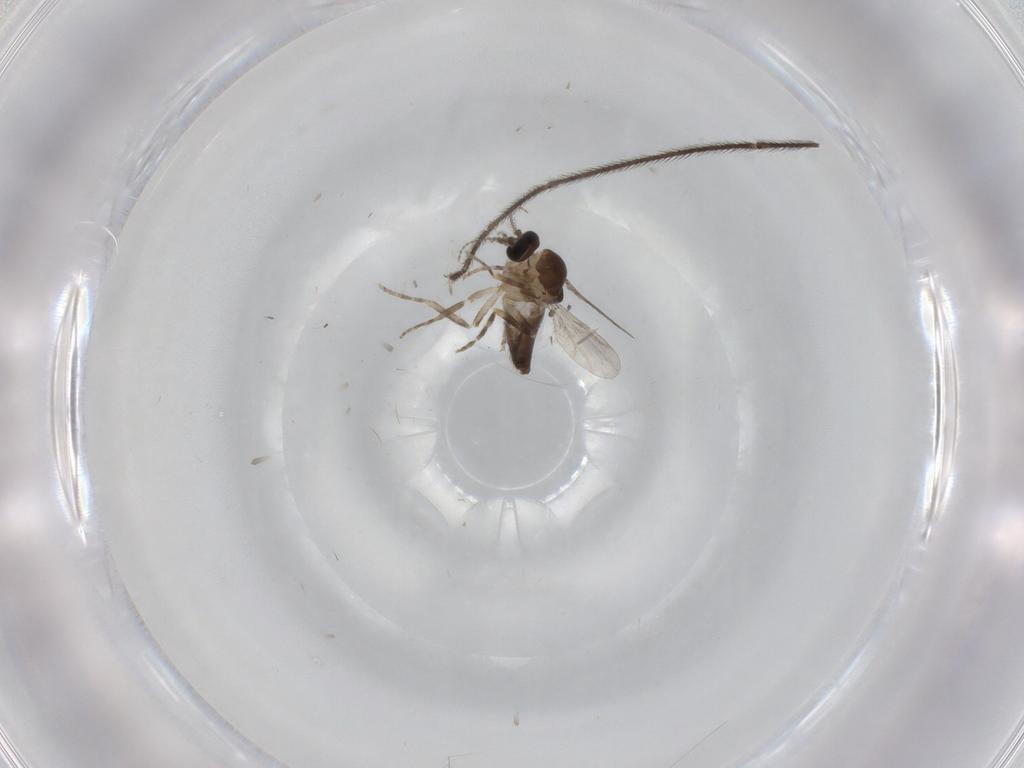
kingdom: Animalia
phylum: Arthropoda
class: Insecta
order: Diptera
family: Ceratopogonidae
